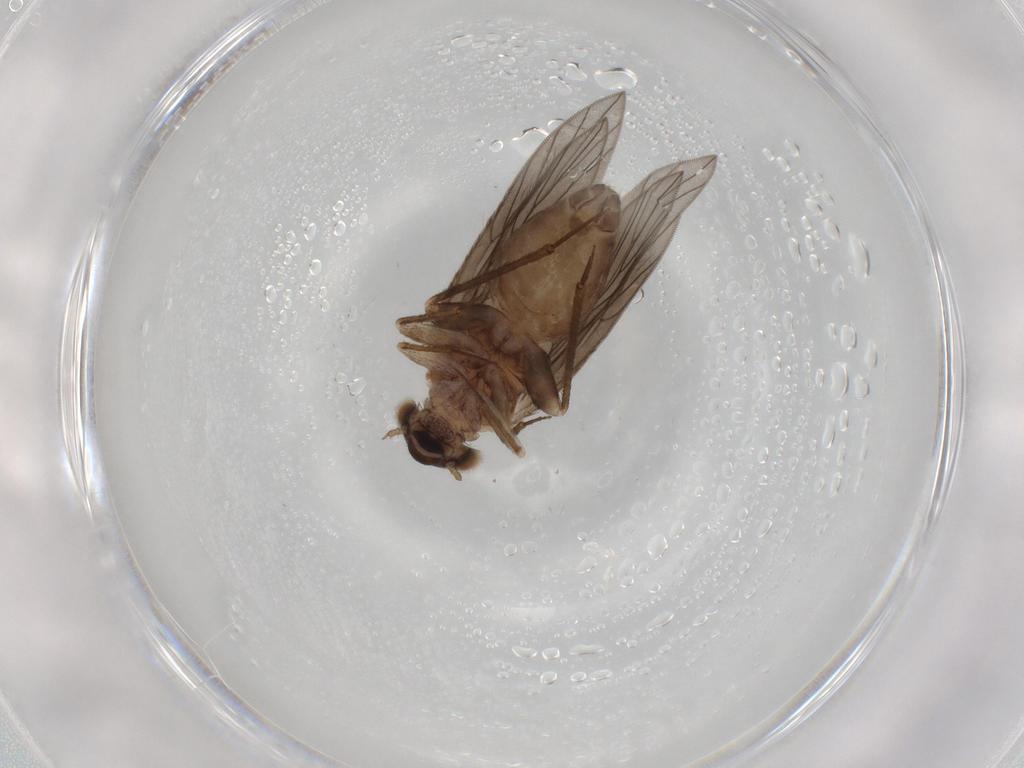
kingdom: Animalia
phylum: Arthropoda
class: Insecta
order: Psocodea
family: Lepidopsocidae
